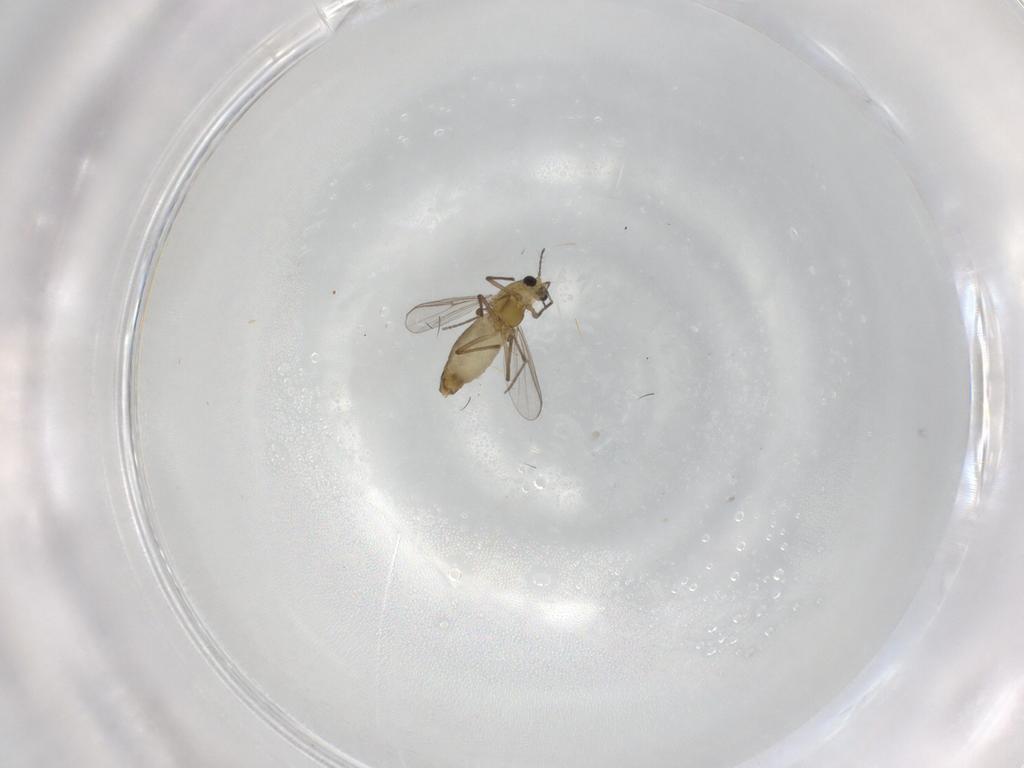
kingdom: Animalia
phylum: Arthropoda
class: Insecta
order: Diptera
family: Chironomidae
